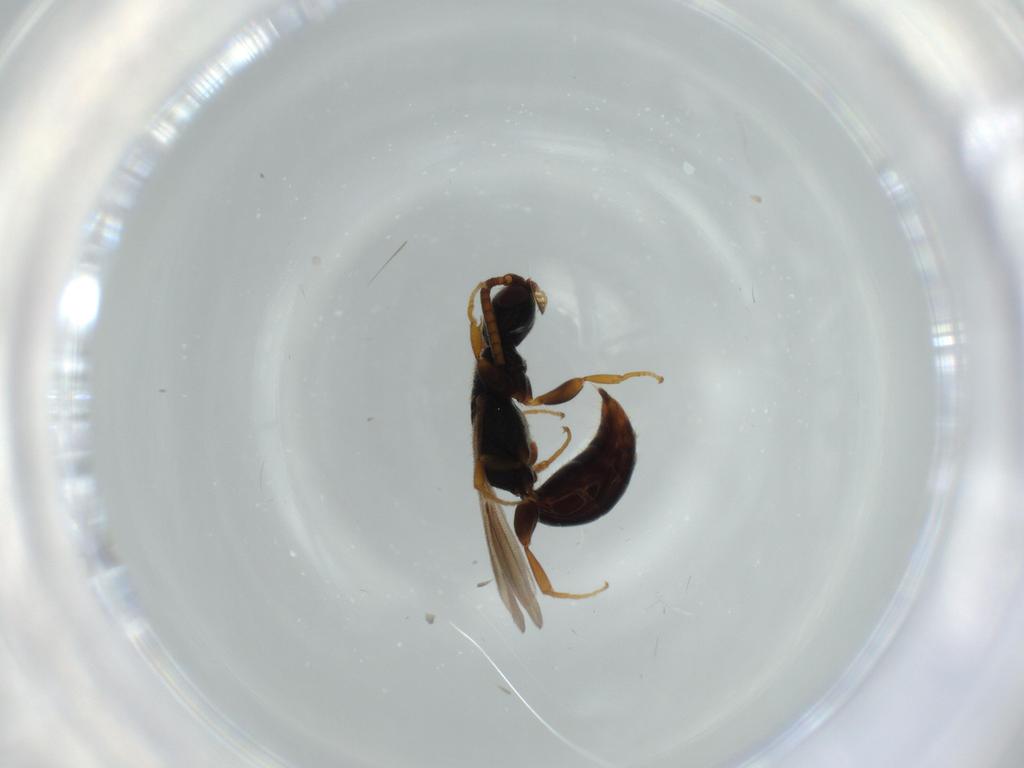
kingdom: Animalia
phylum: Arthropoda
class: Insecta
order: Hymenoptera
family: Bethylidae
